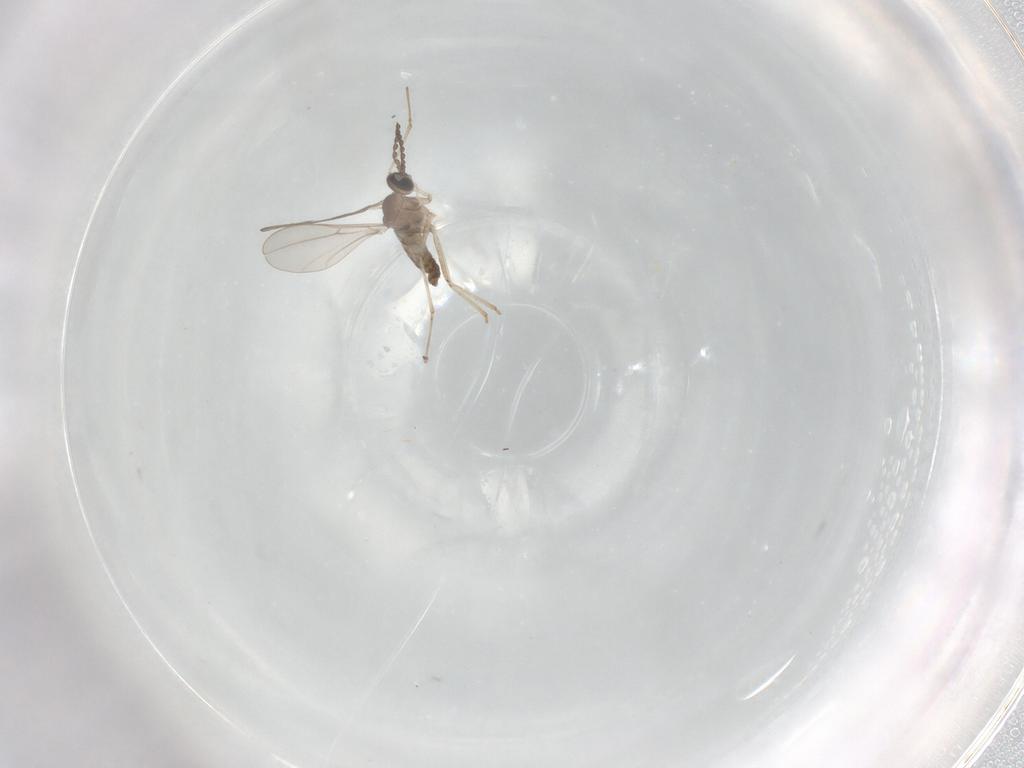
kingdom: Animalia
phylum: Arthropoda
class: Insecta
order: Diptera
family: Cecidomyiidae
